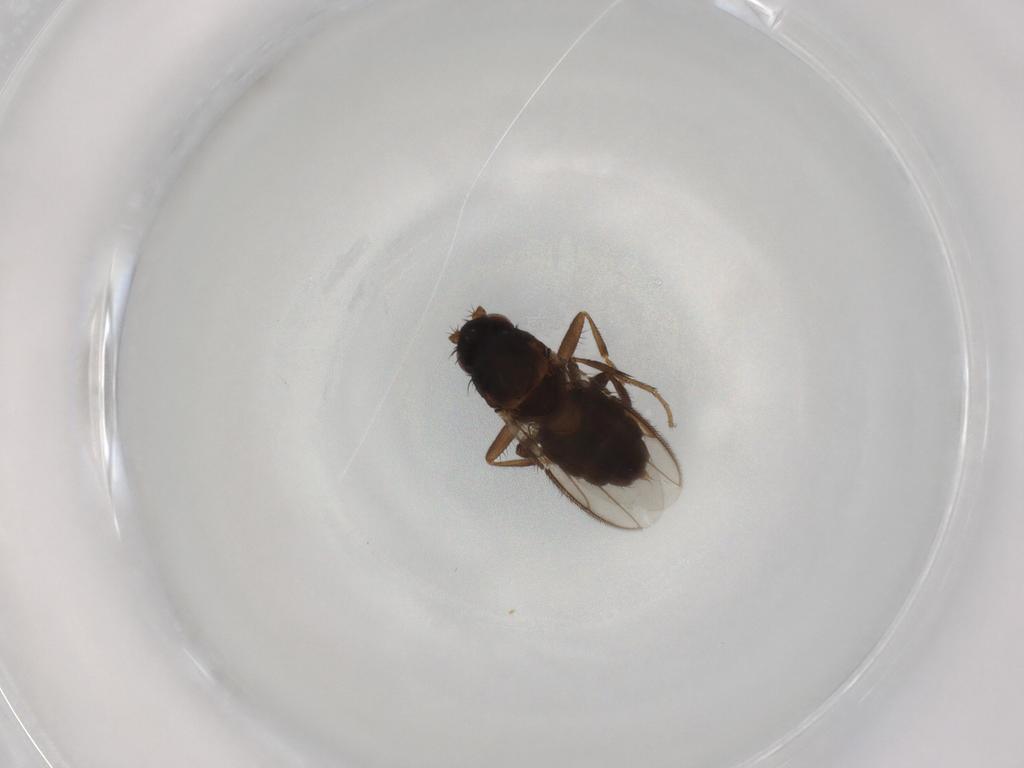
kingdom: Animalia
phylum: Arthropoda
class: Insecta
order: Diptera
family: Sphaeroceridae
